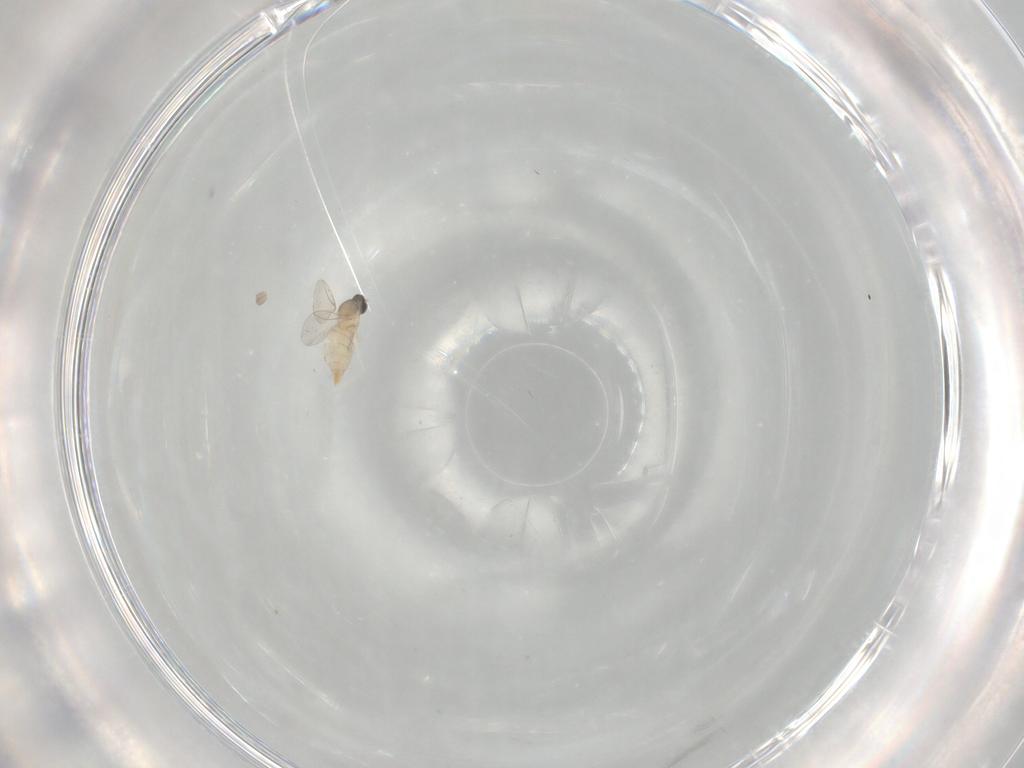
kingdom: Animalia
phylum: Arthropoda
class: Insecta
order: Diptera
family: Cecidomyiidae
